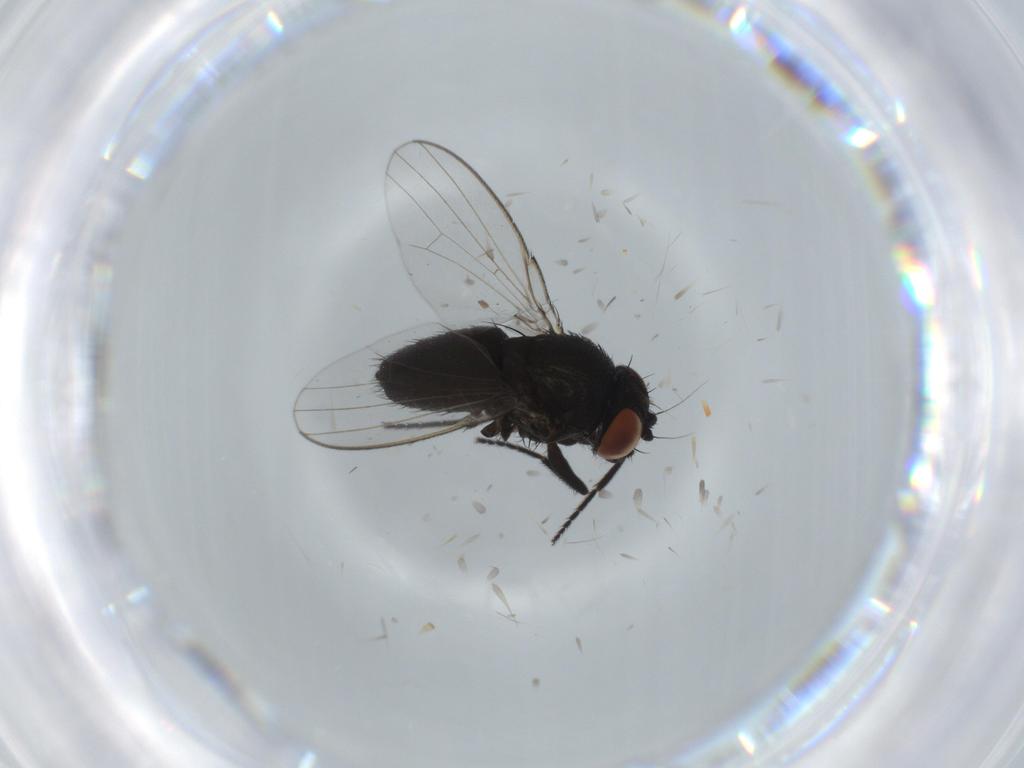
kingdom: Animalia
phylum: Arthropoda
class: Insecta
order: Diptera
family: Milichiidae
